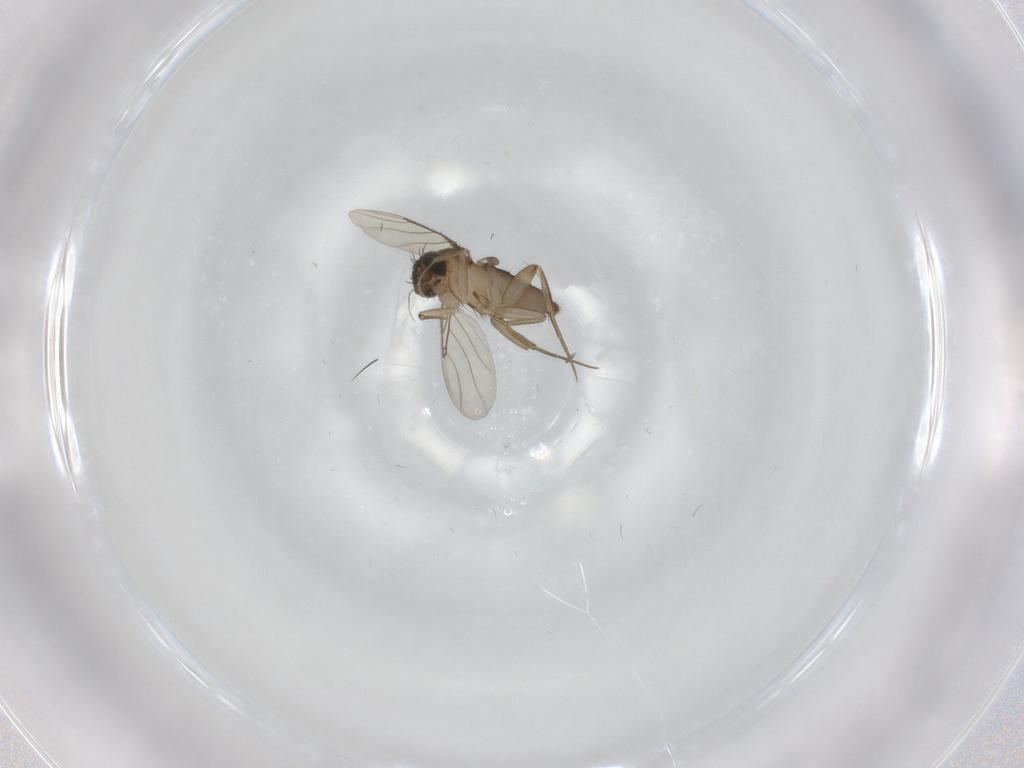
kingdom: Animalia
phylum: Arthropoda
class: Insecta
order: Diptera
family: Phoridae
